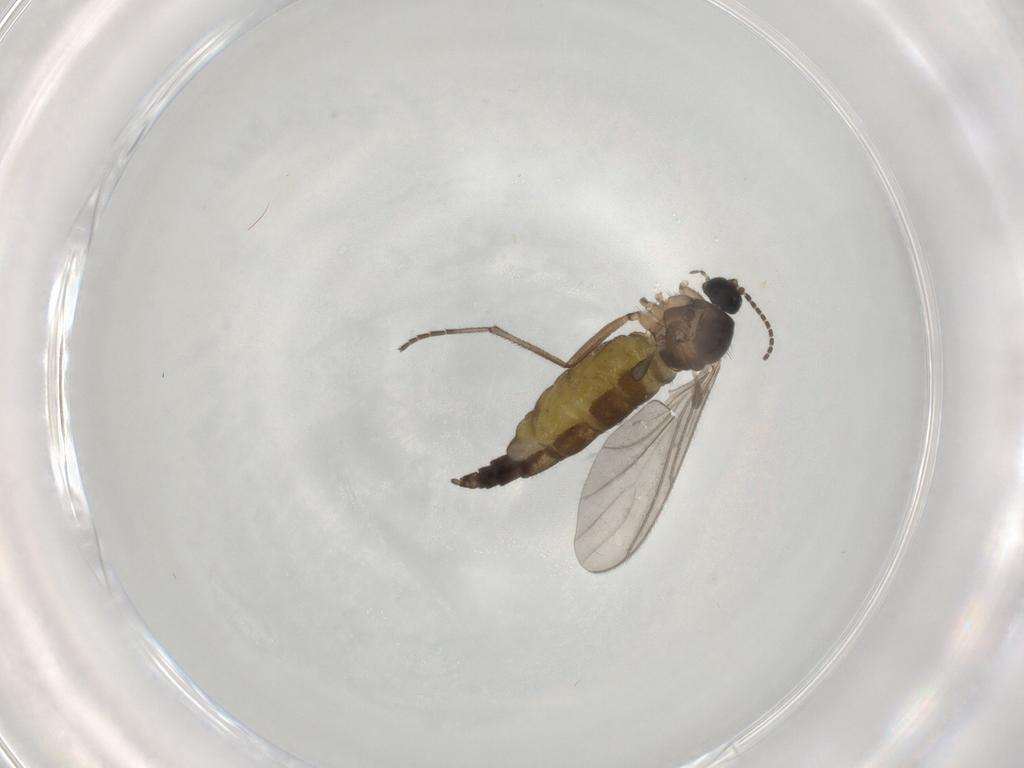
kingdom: Animalia
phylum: Arthropoda
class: Insecta
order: Diptera
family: Sciaridae
